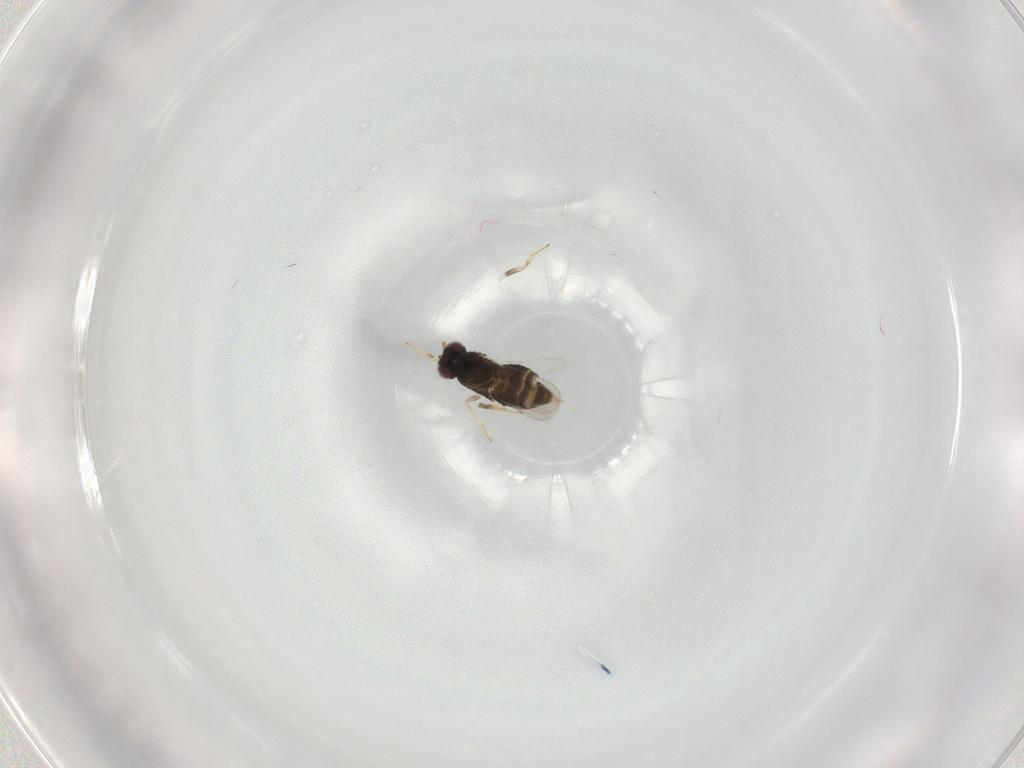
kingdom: Animalia
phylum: Arthropoda
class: Insecta
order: Hymenoptera
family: Aphelinidae
